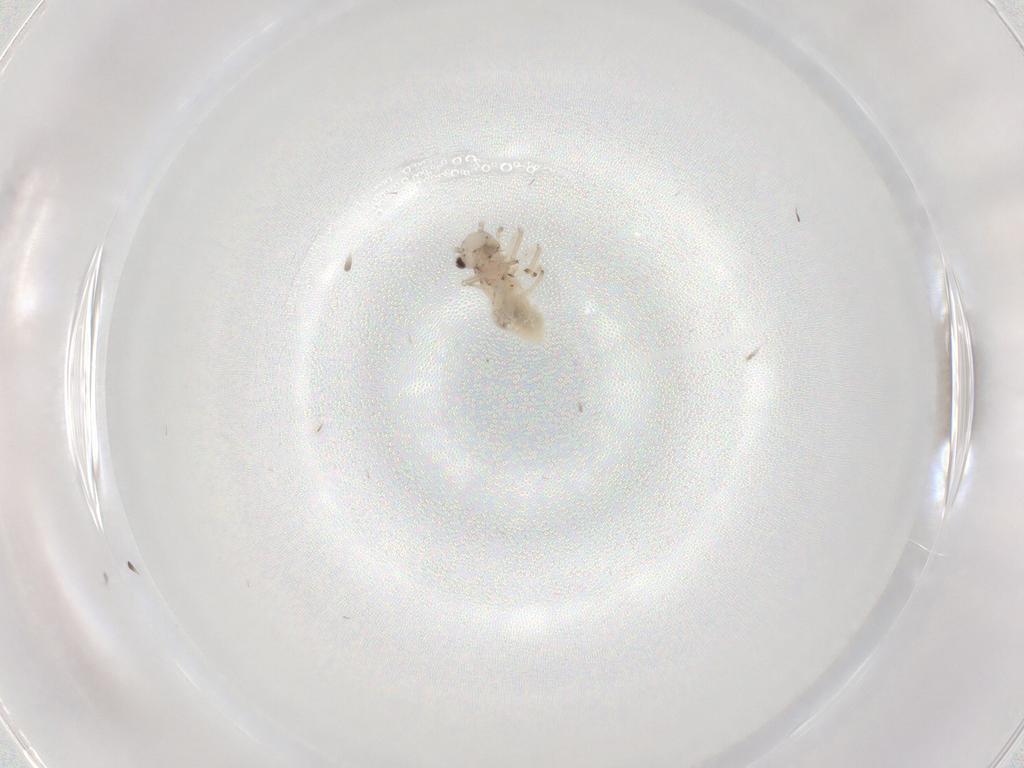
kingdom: Animalia
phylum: Arthropoda
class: Insecta
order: Psocodea
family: Caeciliusidae
